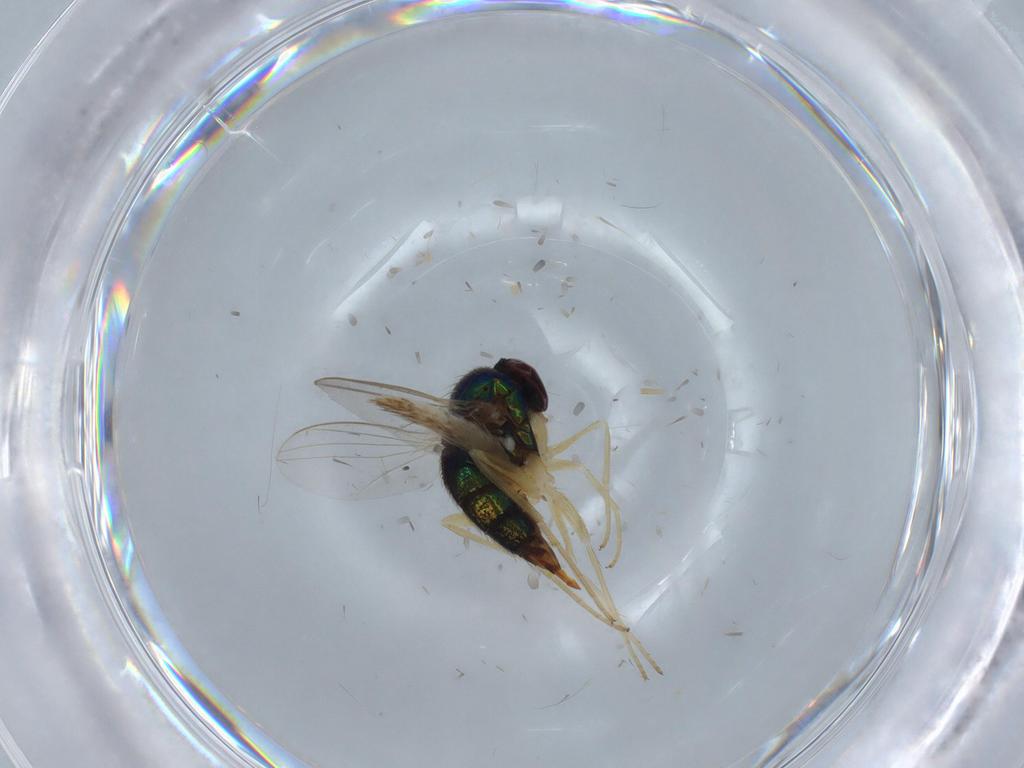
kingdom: Animalia
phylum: Arthropoda
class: Insecta
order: Diptera
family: Dolichopodidae
